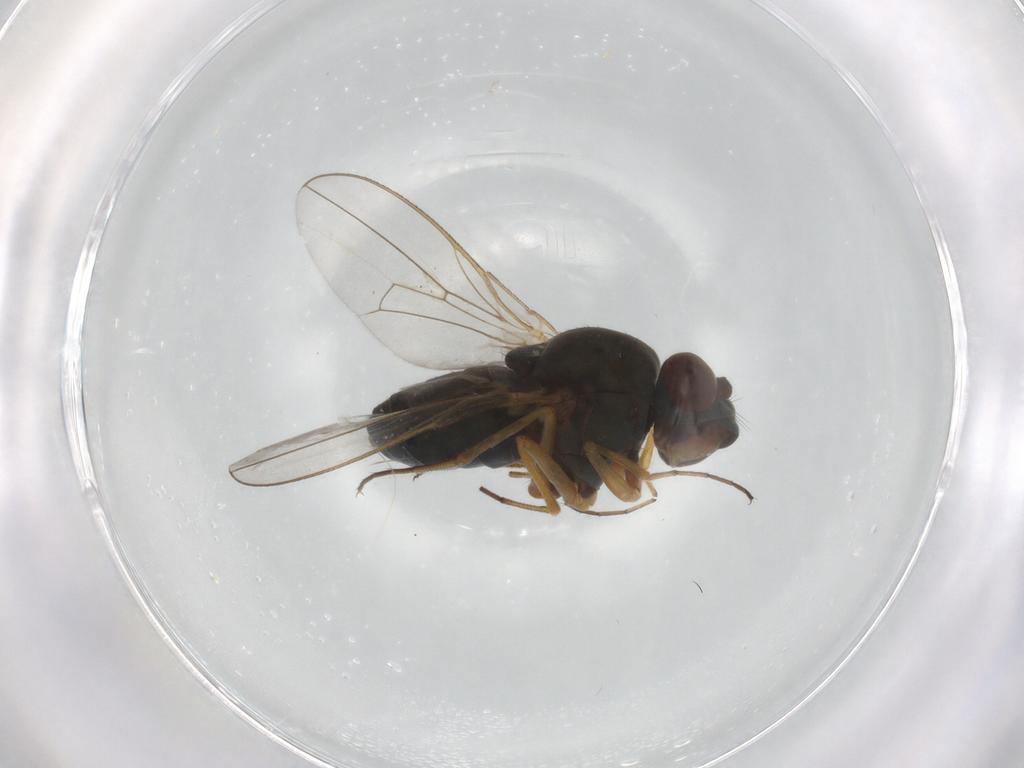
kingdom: Animalia
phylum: Arthropoda
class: Insecta
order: Diptera
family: Ephydridae
